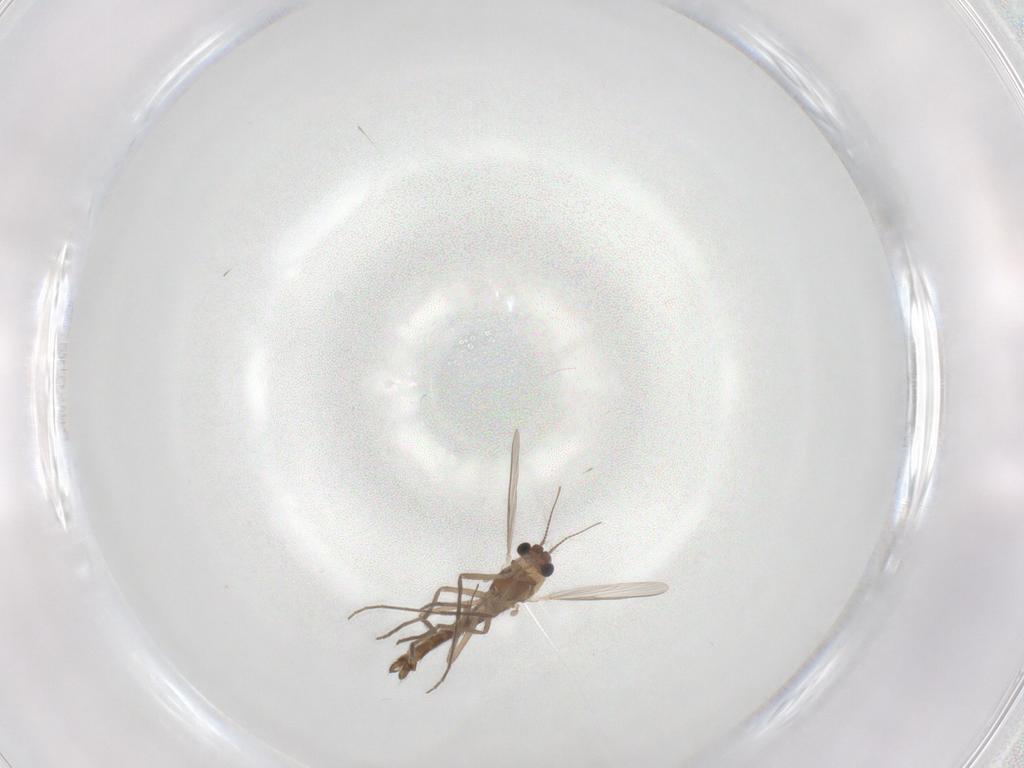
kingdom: Animalia
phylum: Arthropoda
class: Insecta
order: Diptera
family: Chironomidae
